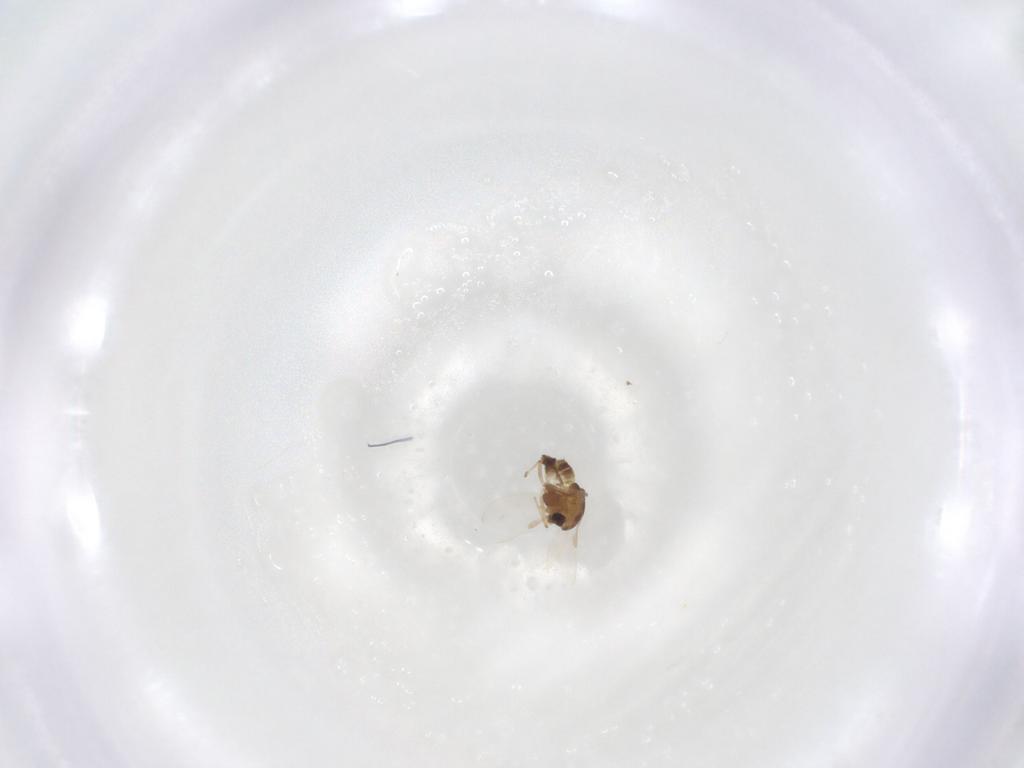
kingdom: Animalia
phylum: Arthropoda
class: Insecta
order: Diptera
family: Chironomidae
